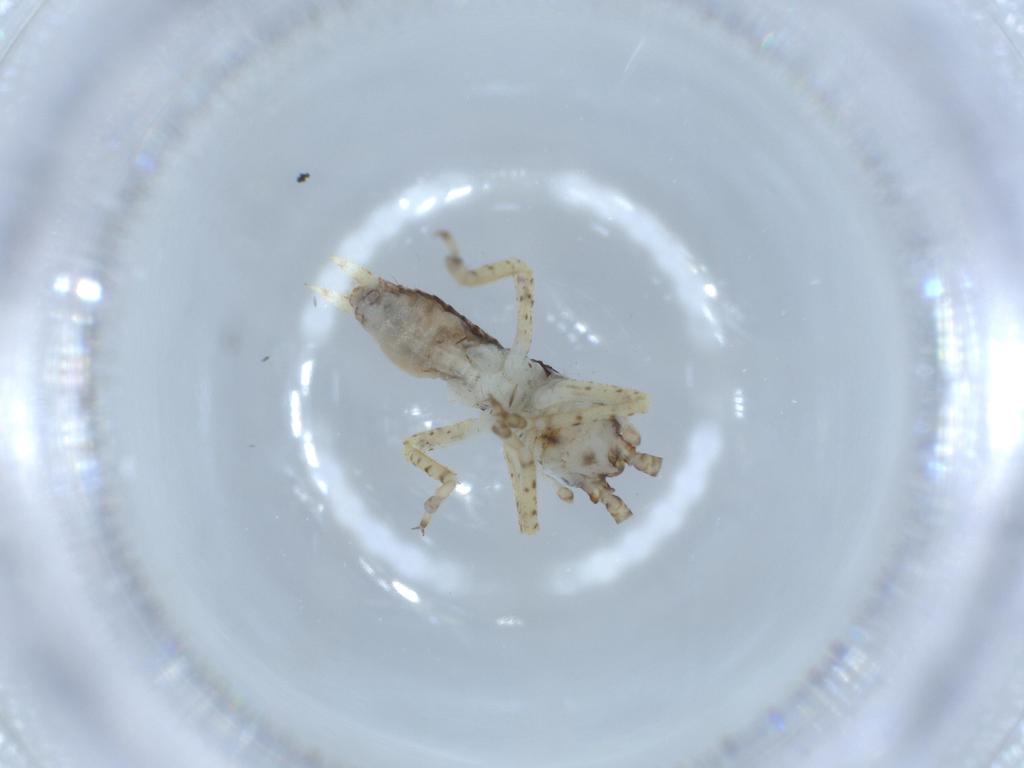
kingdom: Animalia
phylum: Arthropoda
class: Insecta
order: Orthoptera
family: Gryllidae
